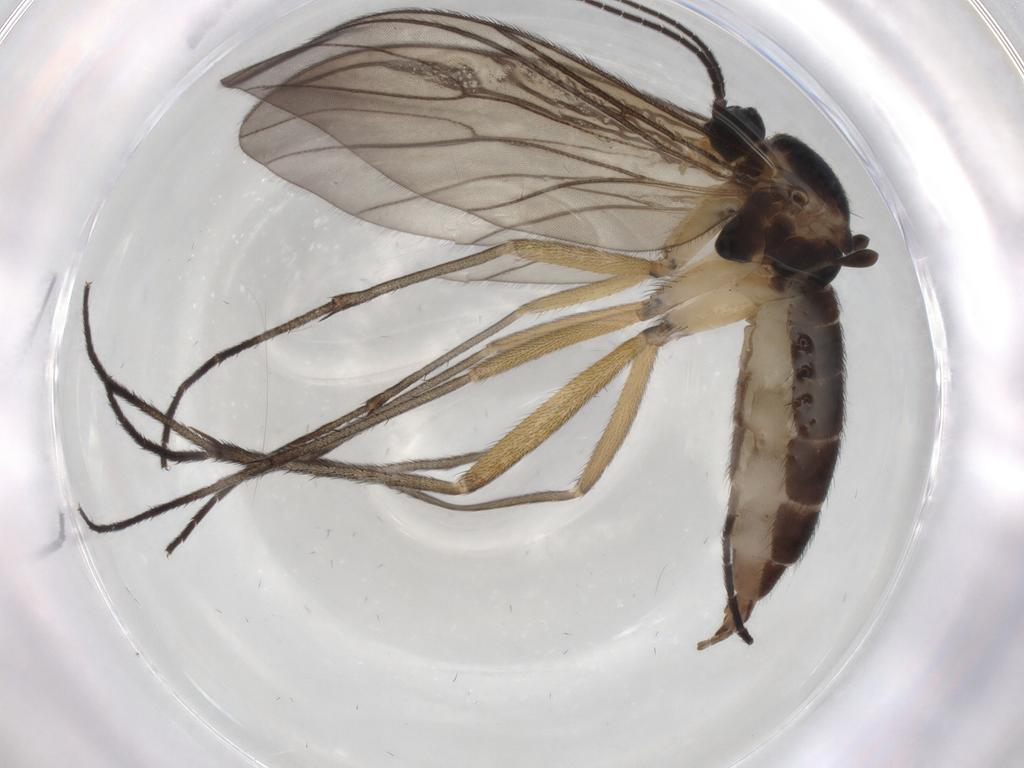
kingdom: Animalia
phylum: Arthropoda
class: Insecta
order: Diptera
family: Sciaridae
